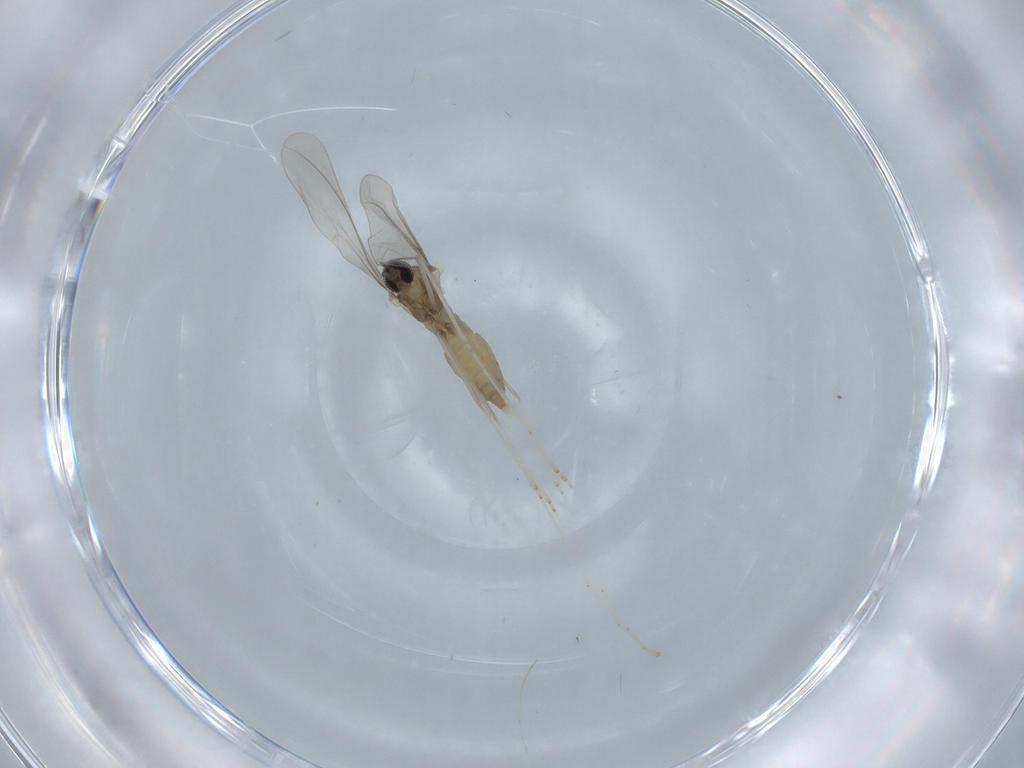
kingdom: Animalia
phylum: Arthropoda
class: Insecta
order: Diptera
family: Cecidomyiidae
